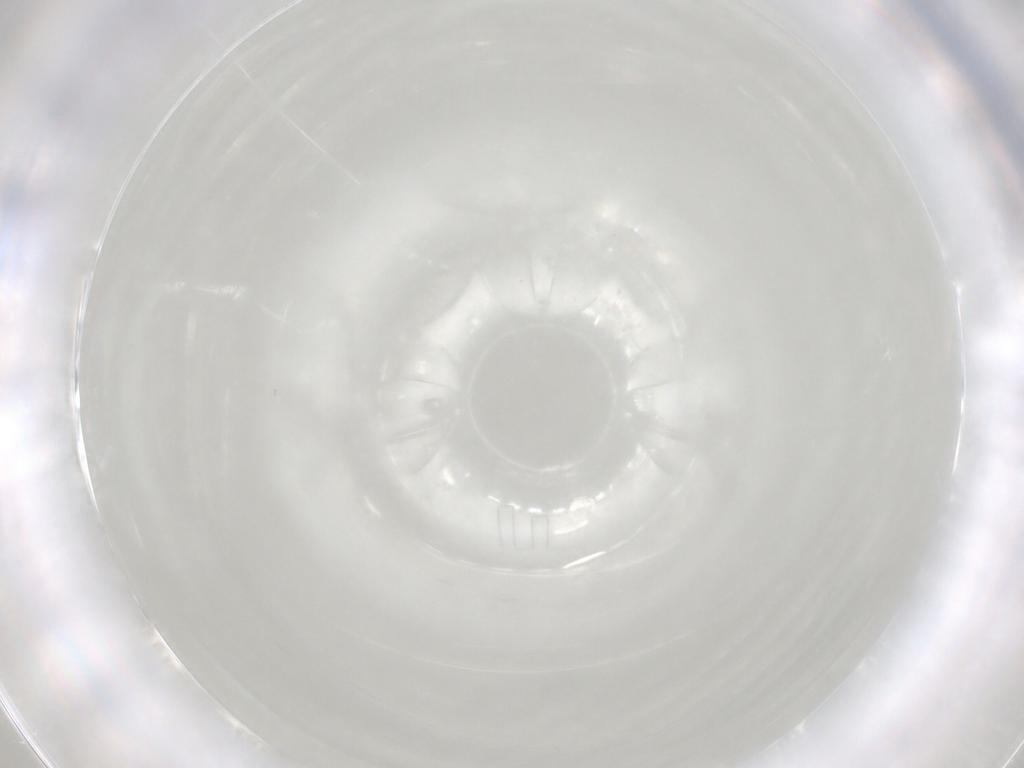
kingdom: Animalia
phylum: Arthropoda
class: Arachnida
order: Mesostigmata
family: Phytoseiidae
